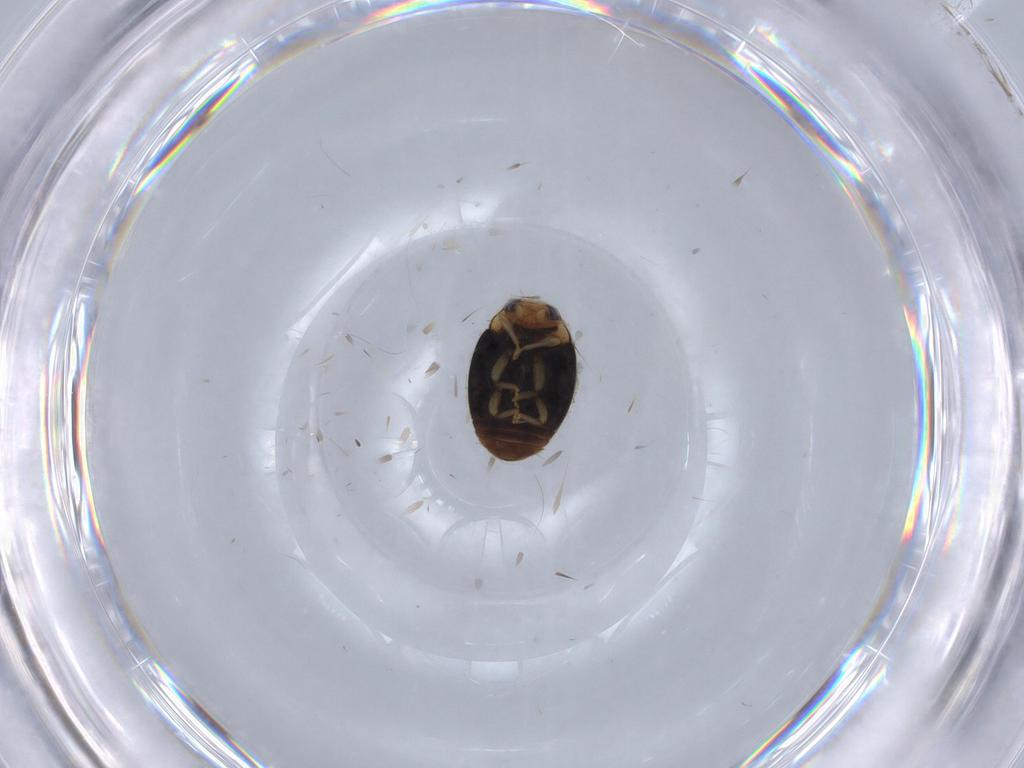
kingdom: Animalia
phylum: Arthropoda
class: Insecta
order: Coleoptera
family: Coccinellidae
